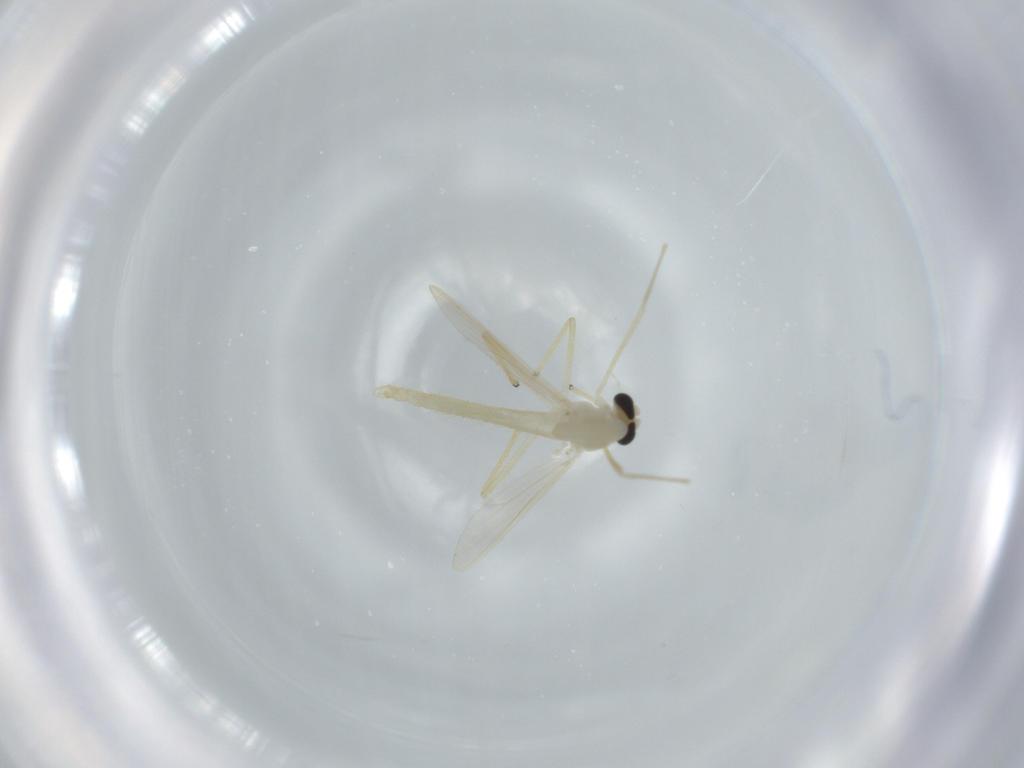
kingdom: Animalia
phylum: Arthropoda
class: Insecta
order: Diptera
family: Chironomidae
